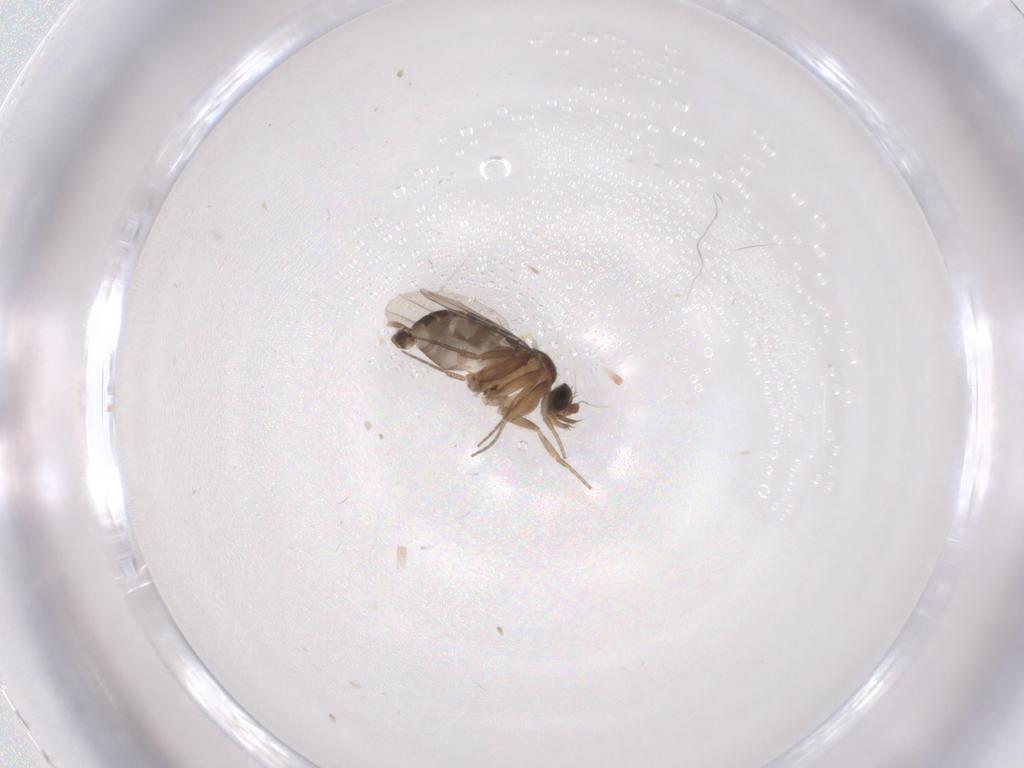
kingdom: Animalia
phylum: Arthropoda
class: Insecta
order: Diptera
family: Phoridae
